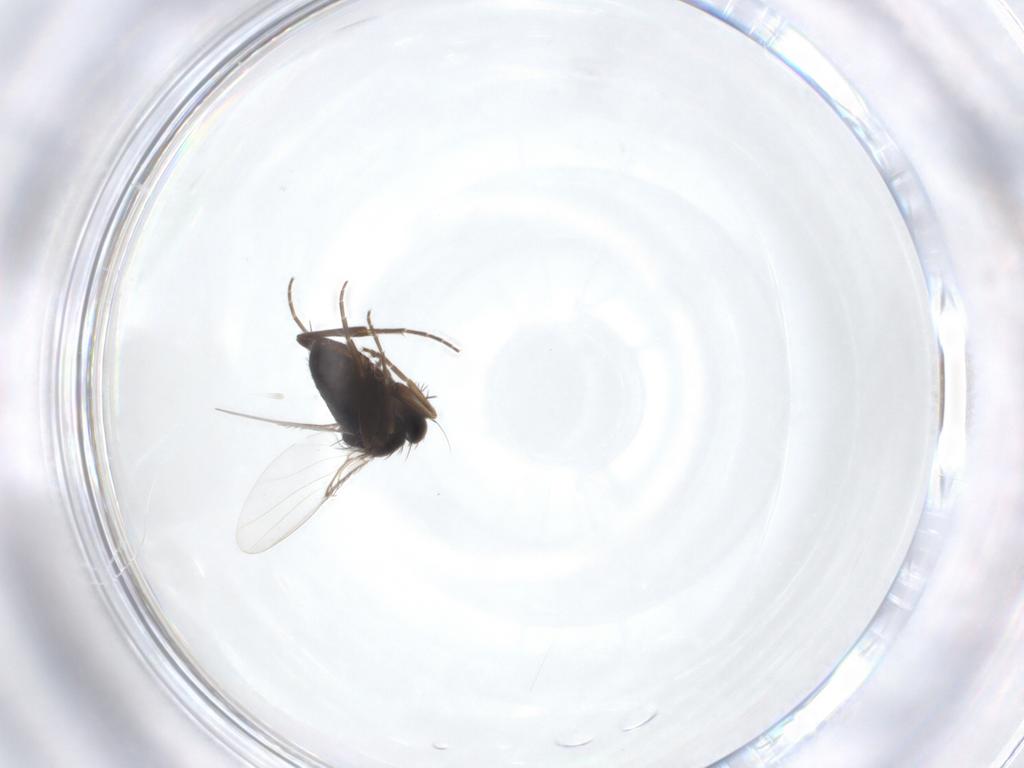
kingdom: Animalia
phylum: Arthropoda
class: Insecta
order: Diptera
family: Phoridae
